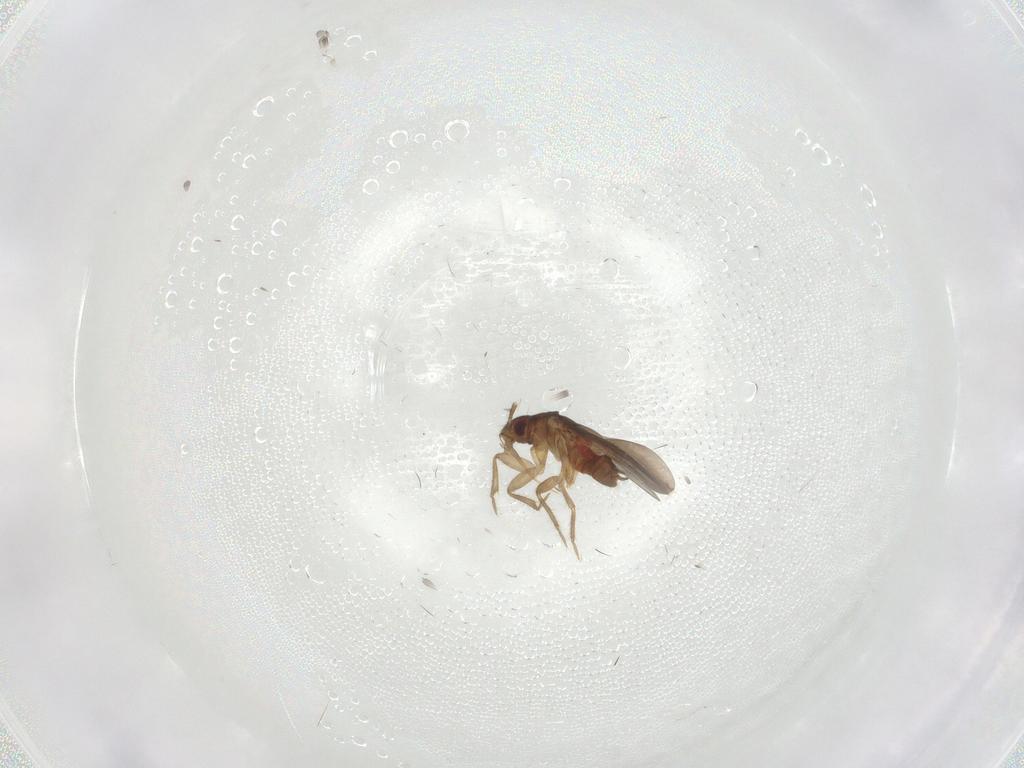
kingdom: Animalia
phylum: Arthropoda
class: Insecta
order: Hemiptera
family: Ceratocombidae
